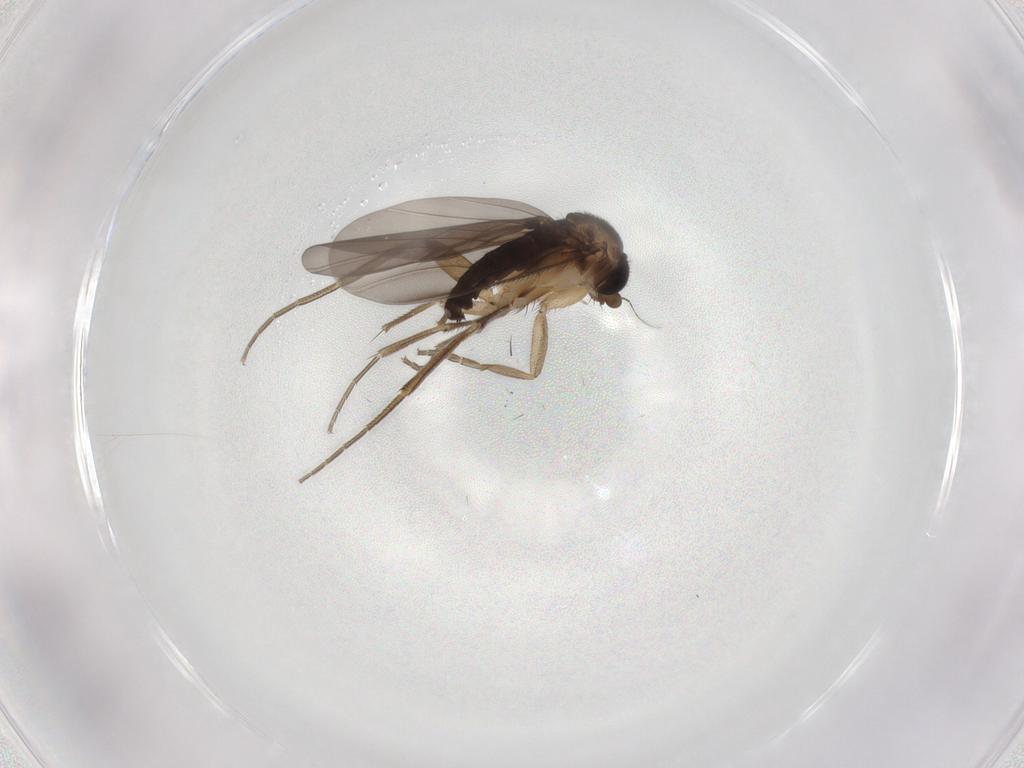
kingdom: Animalia
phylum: Arthropoda
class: Insecta
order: Diptera
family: Phoridae
